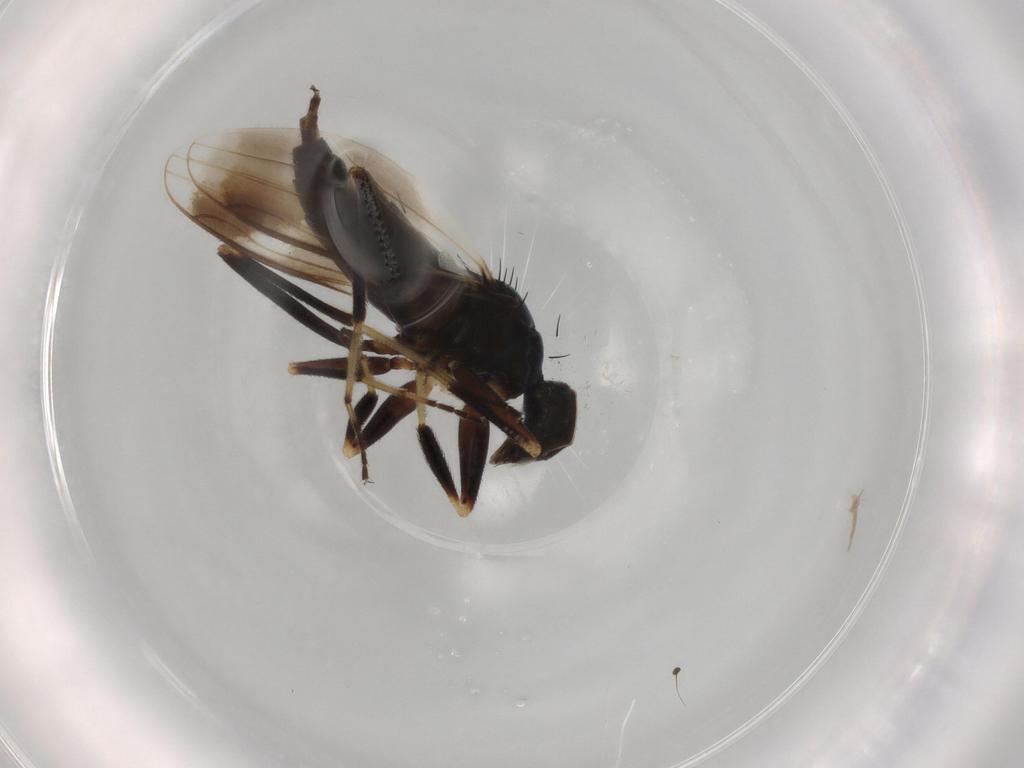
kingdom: Animalia
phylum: Arthropoda
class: Insecta
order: Diptera
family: Hybotidae
